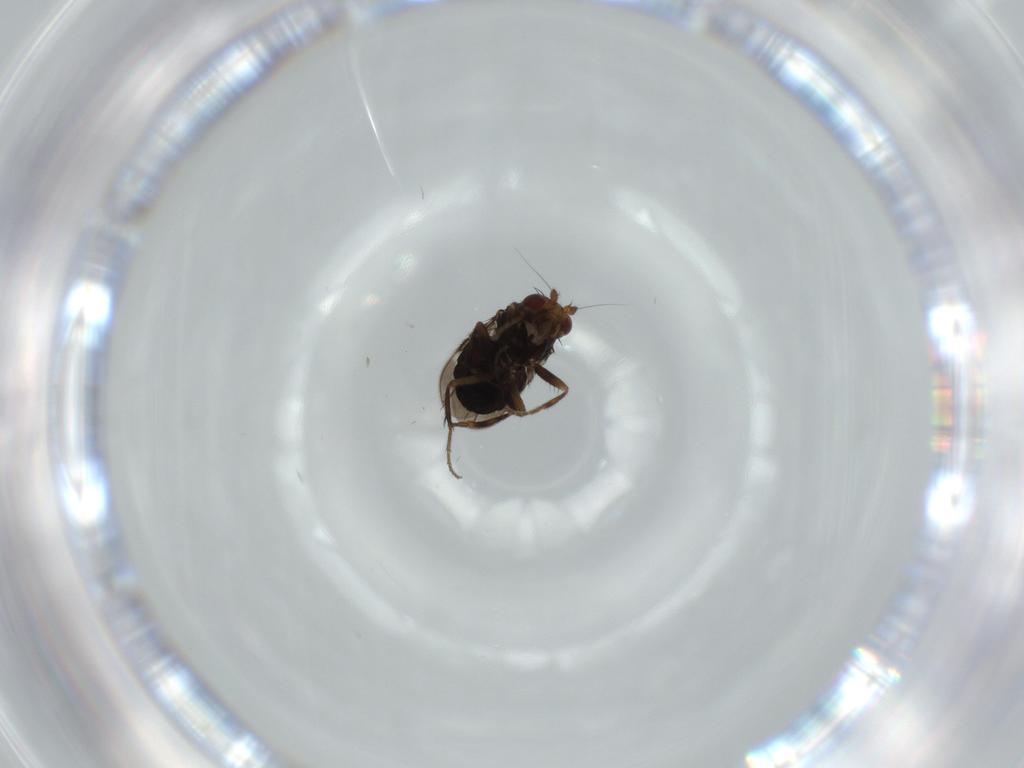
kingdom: Animalia
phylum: Arthropoda
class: Insecta
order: Diptera
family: Sphaeroceridae
